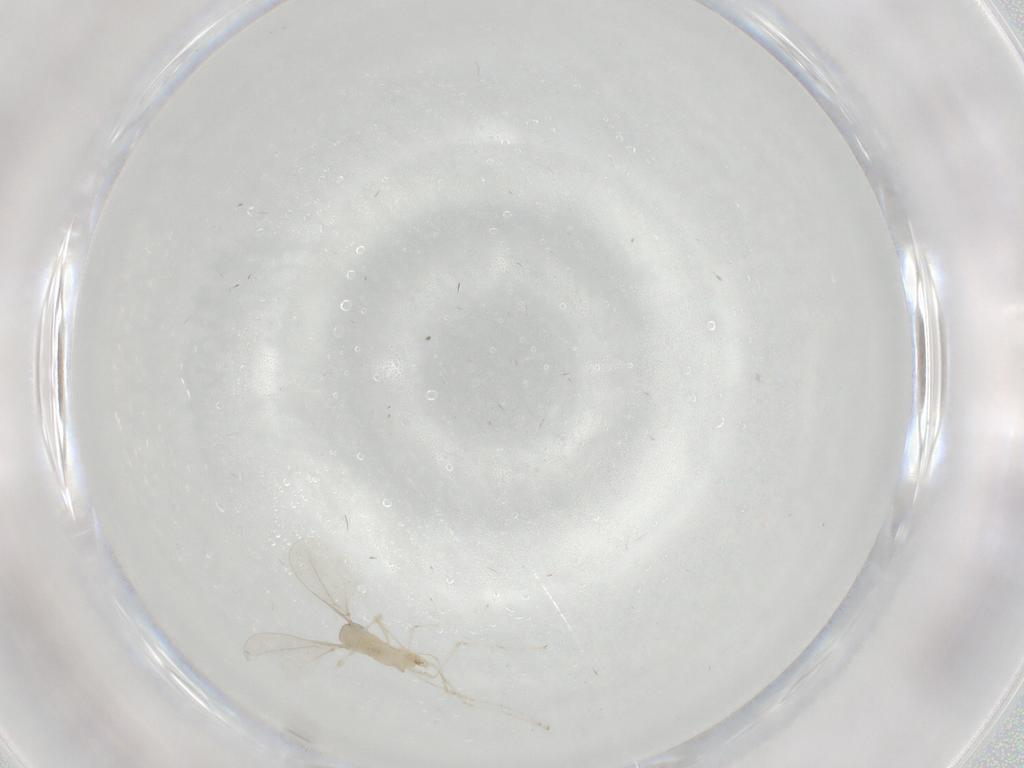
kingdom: Animalia
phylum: Arthropoda
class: Insecta
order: Diptera
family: Cecidomyiidae
